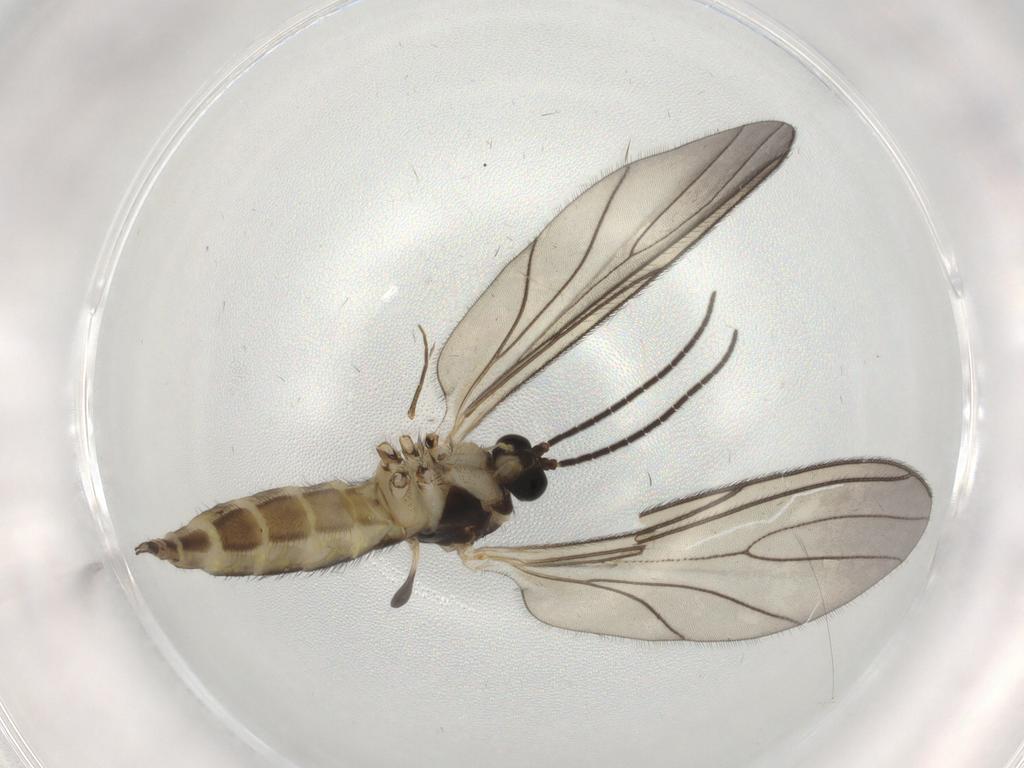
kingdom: Animalia
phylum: Arthropoda
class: Insecta
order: Diptera
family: Sciaridae
